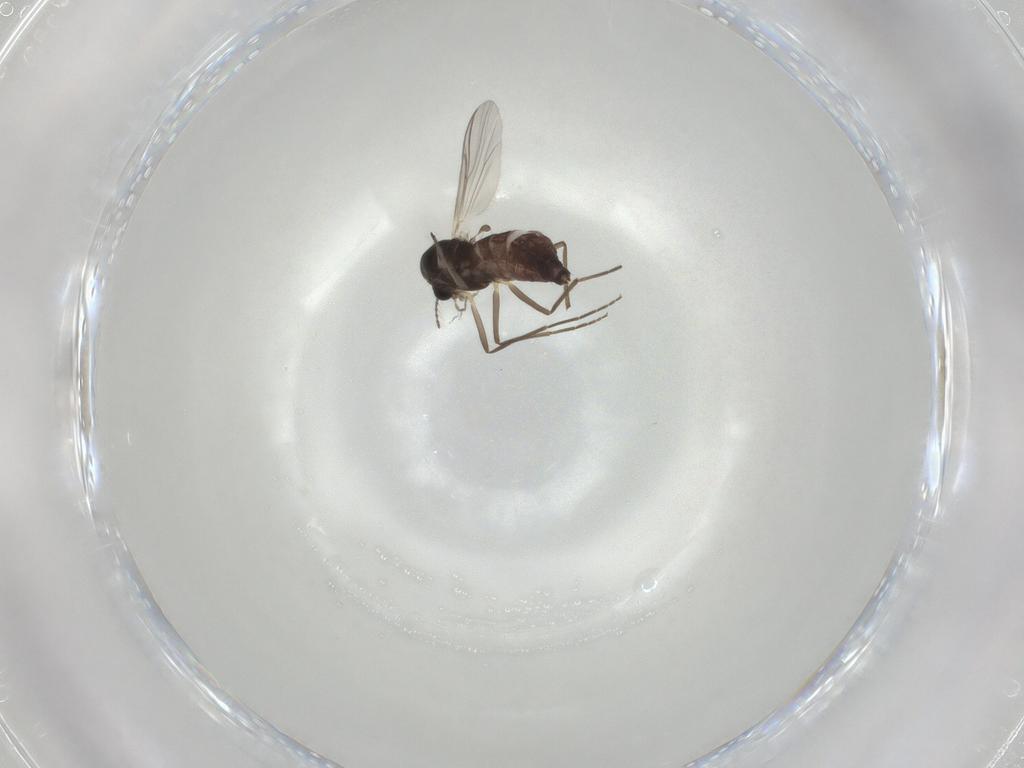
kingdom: Animalia
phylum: Arthropoda
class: Insecta
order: Diptera
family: Chironomidae
